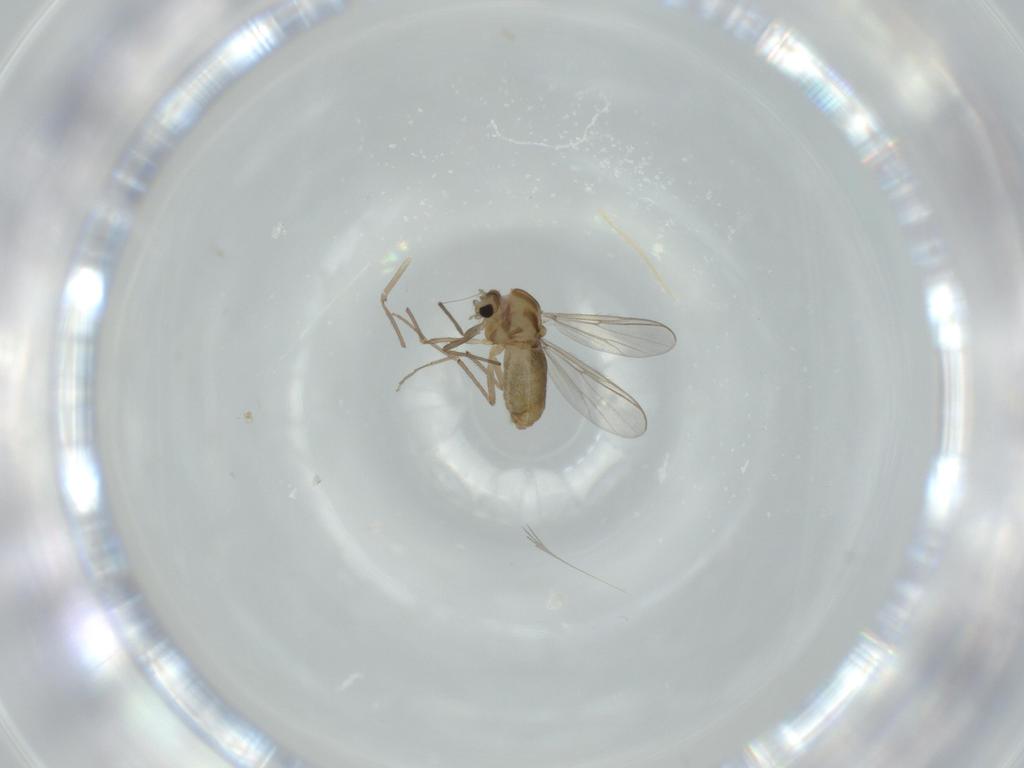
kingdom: Animalia
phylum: Arthropoda
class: Insecta
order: Diptera
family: Chironomidae
